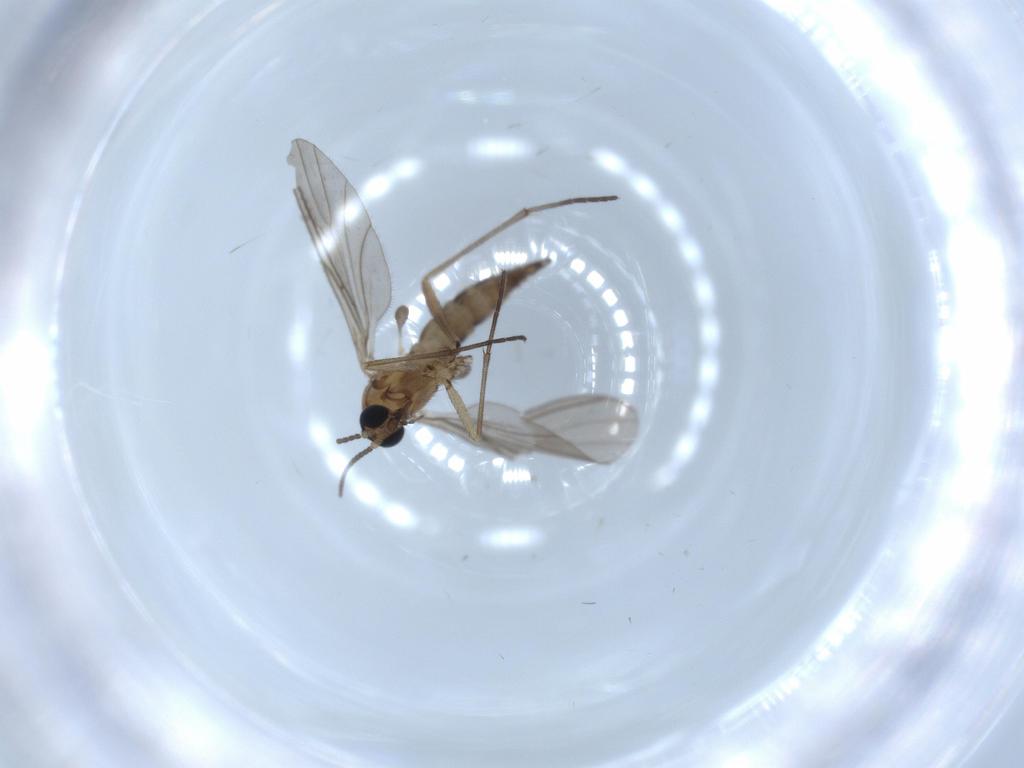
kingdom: Animalia
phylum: Arthropoda
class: Insecta
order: Diptera
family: Sciaridae
